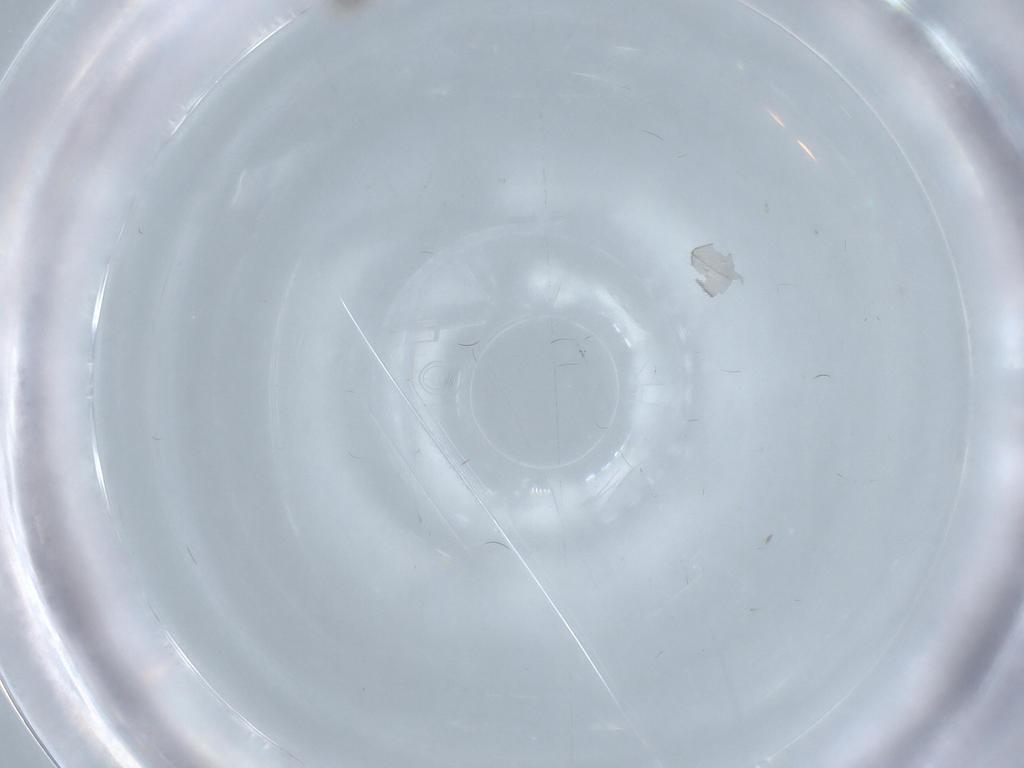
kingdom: Animalia
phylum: Arthropoda
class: Insecta
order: Diptera
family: Sciaridae
